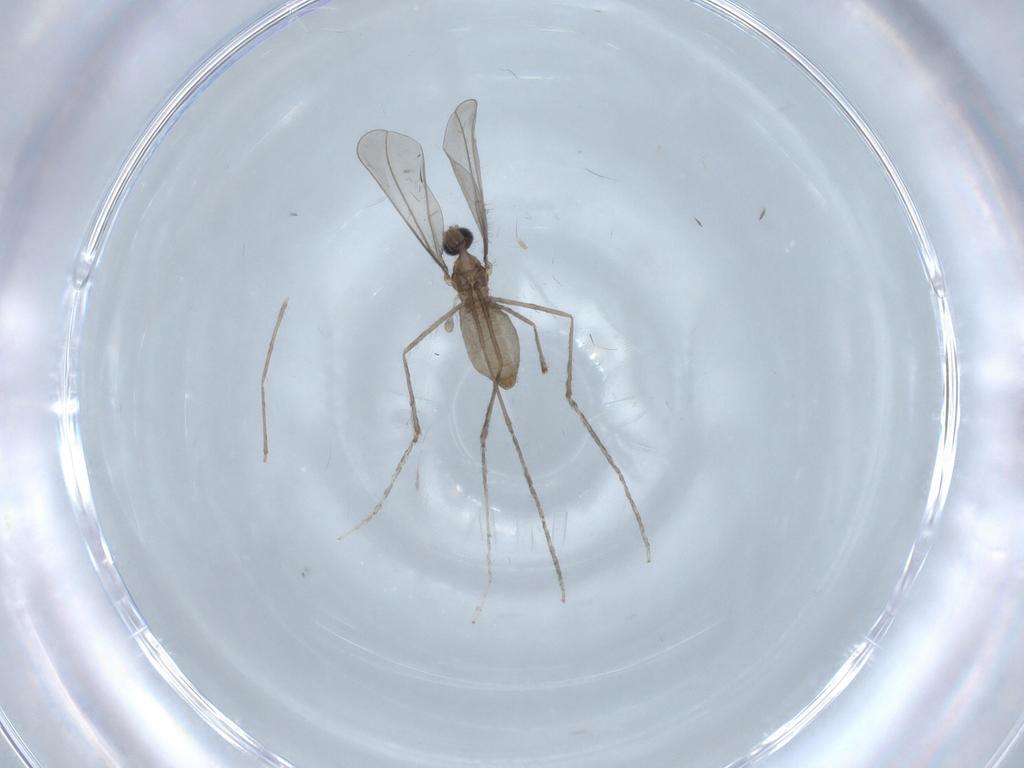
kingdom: Animalia
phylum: Arthropoda
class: Insecta
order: Diptera
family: Cecidomyiidae
